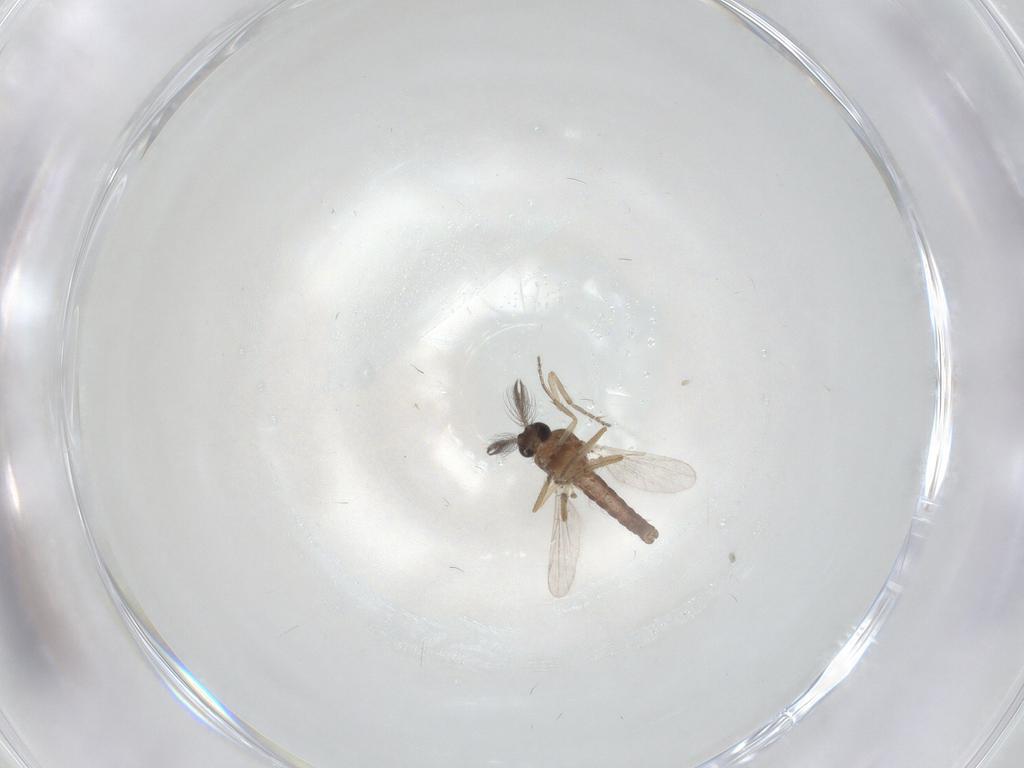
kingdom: Animalia
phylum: Arthropoda
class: Insecta
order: Diptera
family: Ceratopogonidae
